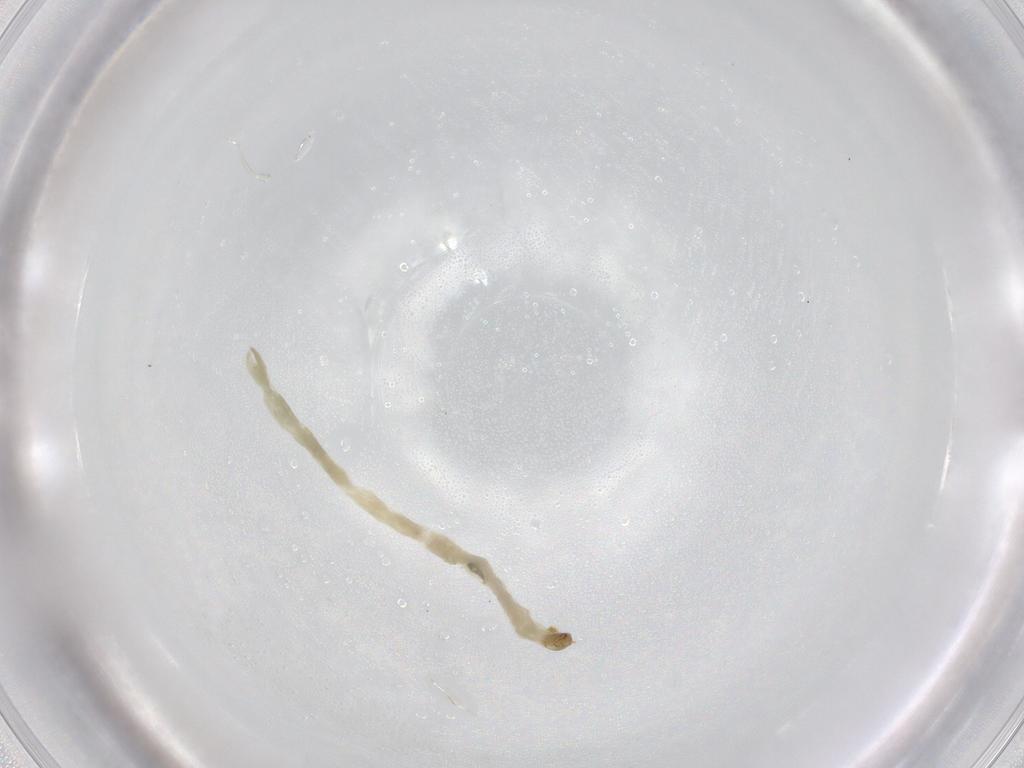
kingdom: Animalia
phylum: Arthropoda
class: Insecta
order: Diptera
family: Chironomidae
